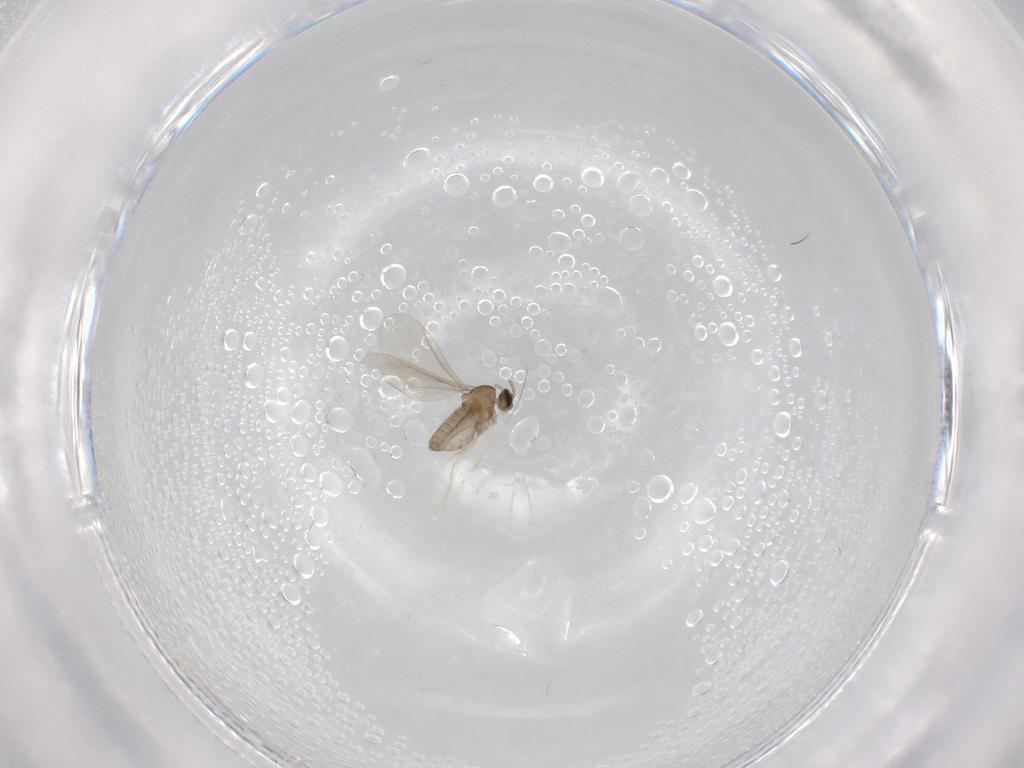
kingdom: Animalia
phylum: Arthropoda
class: Insecta
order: Diptera
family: Cecidomyiidae
